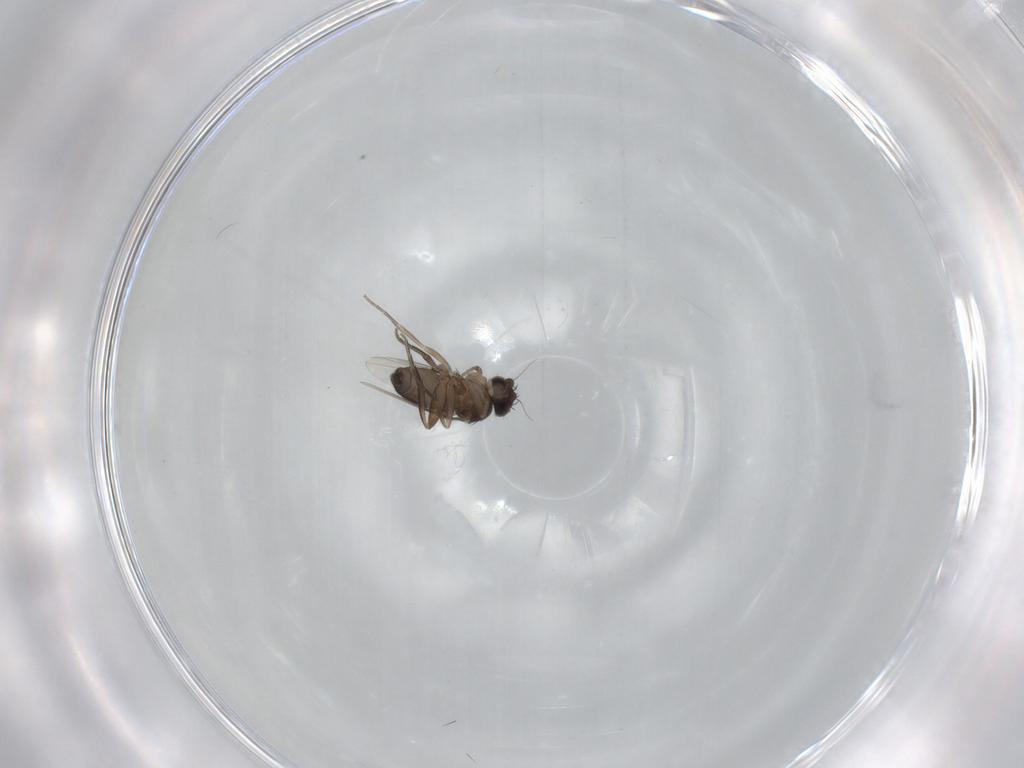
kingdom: Animalia
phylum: Arthropoda
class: Insecta
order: Diptera
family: Phoridae
